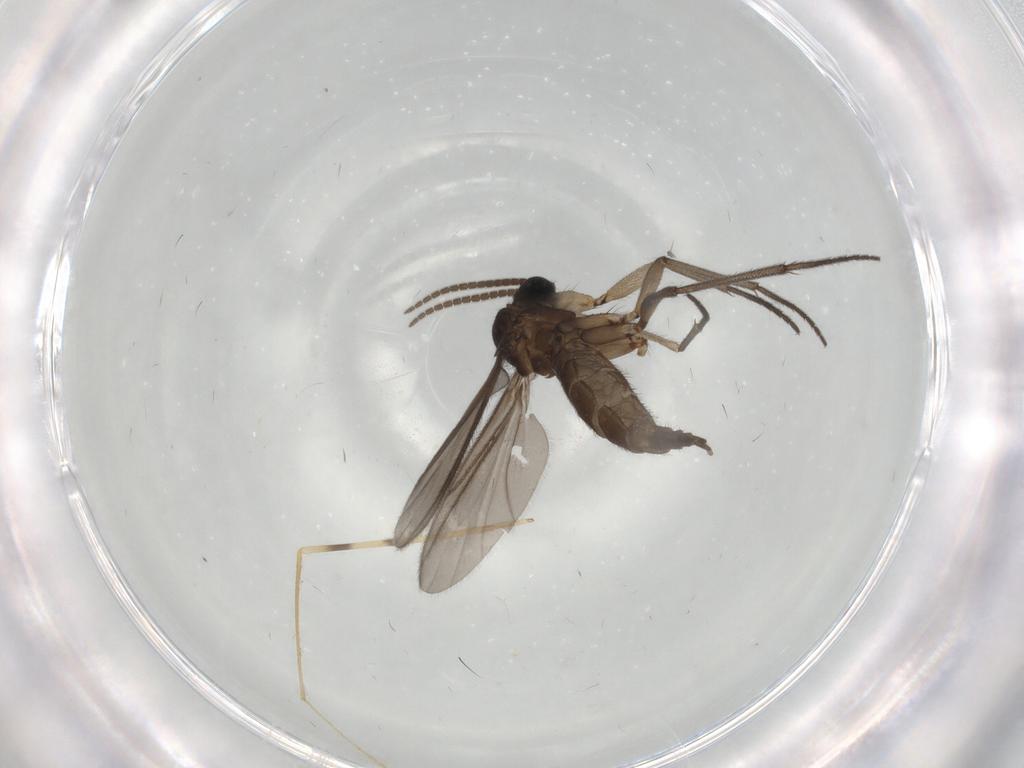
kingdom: Animalia
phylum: Arthropoda
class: Insecta
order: Diptera
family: Sciaridae
